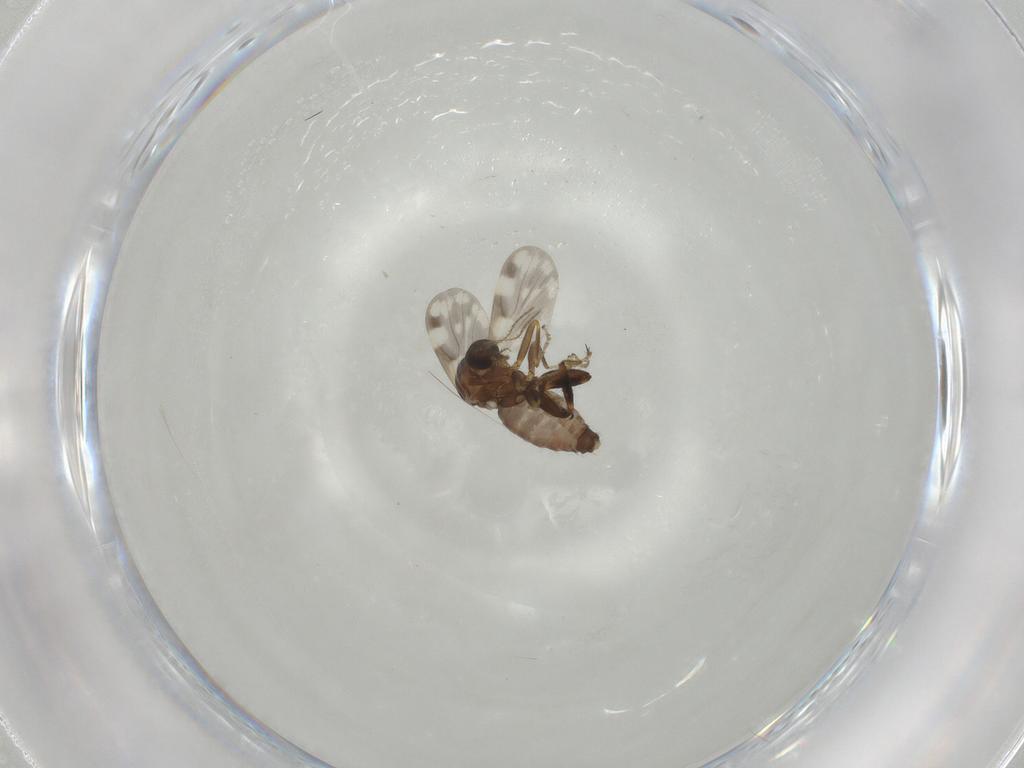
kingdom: Animalia
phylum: Arthropoda
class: Insecta
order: Diptera
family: Ceratopogonidae
